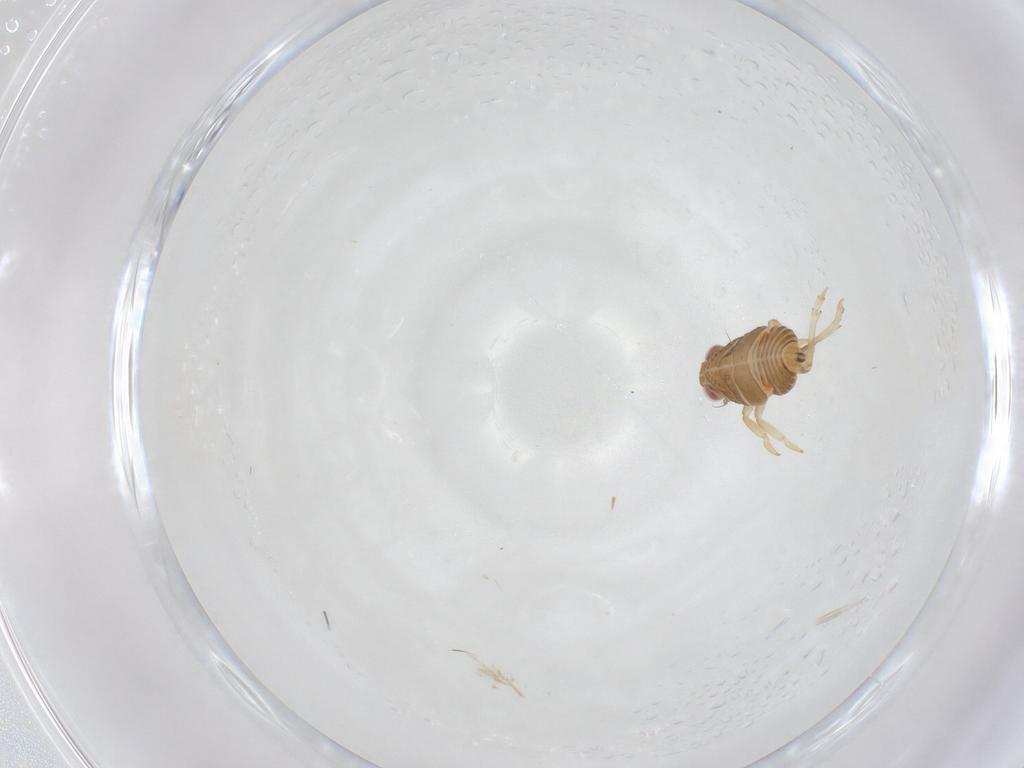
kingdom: Animalia
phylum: Arthropoda
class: Insecta
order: Hemiptera
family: Issidae
